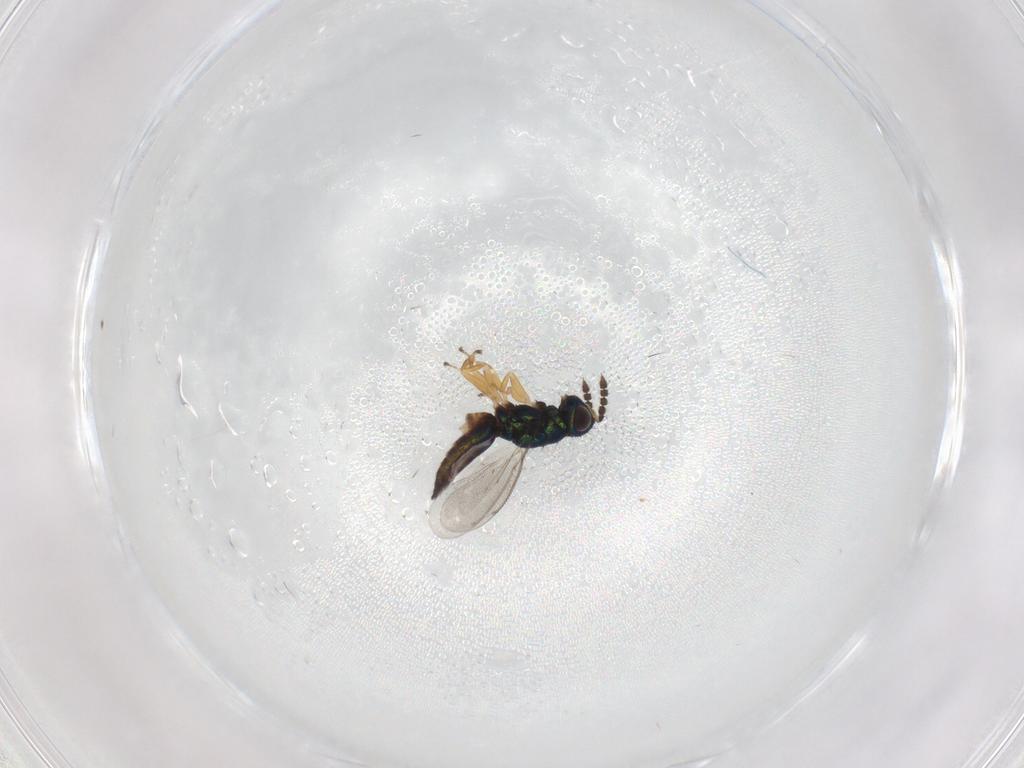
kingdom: Animalia
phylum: Arthropoda
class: Insecta
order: Hymenoptera
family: Eulophidae
